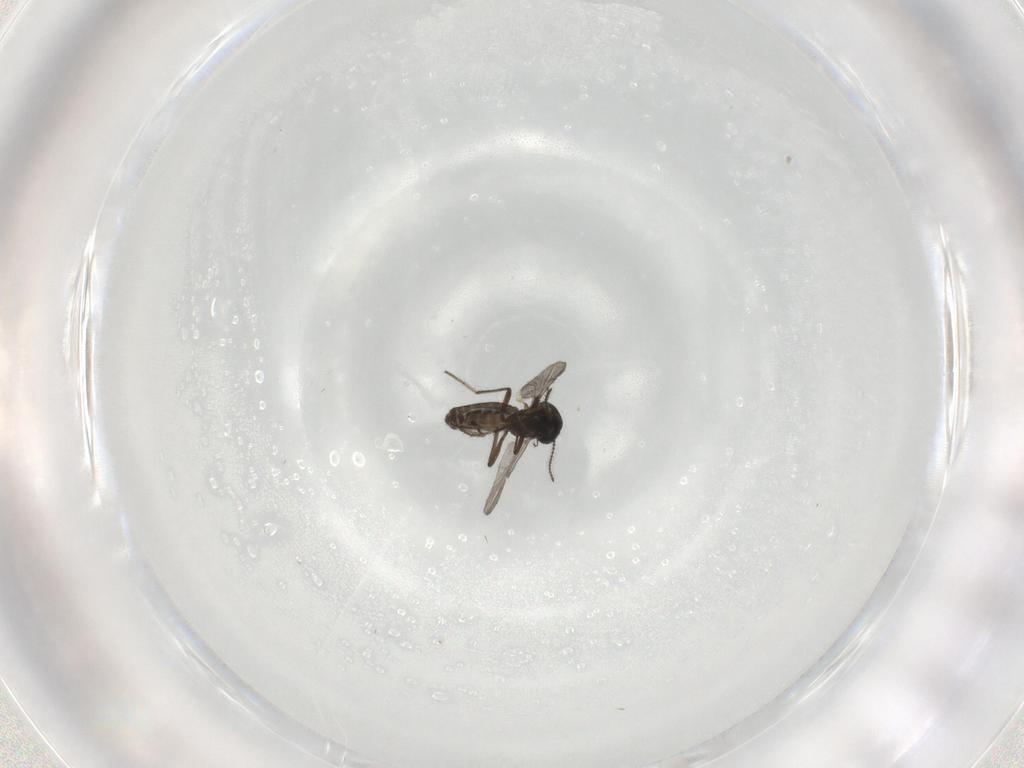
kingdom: Animalia
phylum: Arthropoda
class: Insecta
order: Diptera
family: Ceratopogonidae
